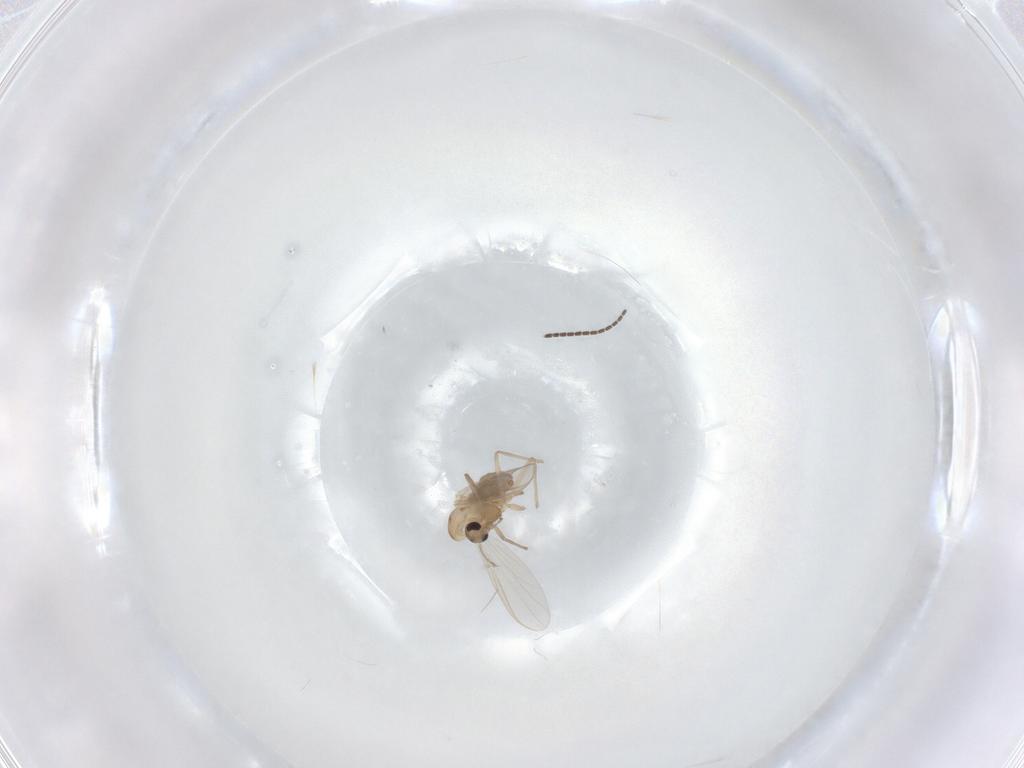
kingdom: Animalia
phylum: Arthropoda
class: Insecta
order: Diptera
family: Chironomidae
